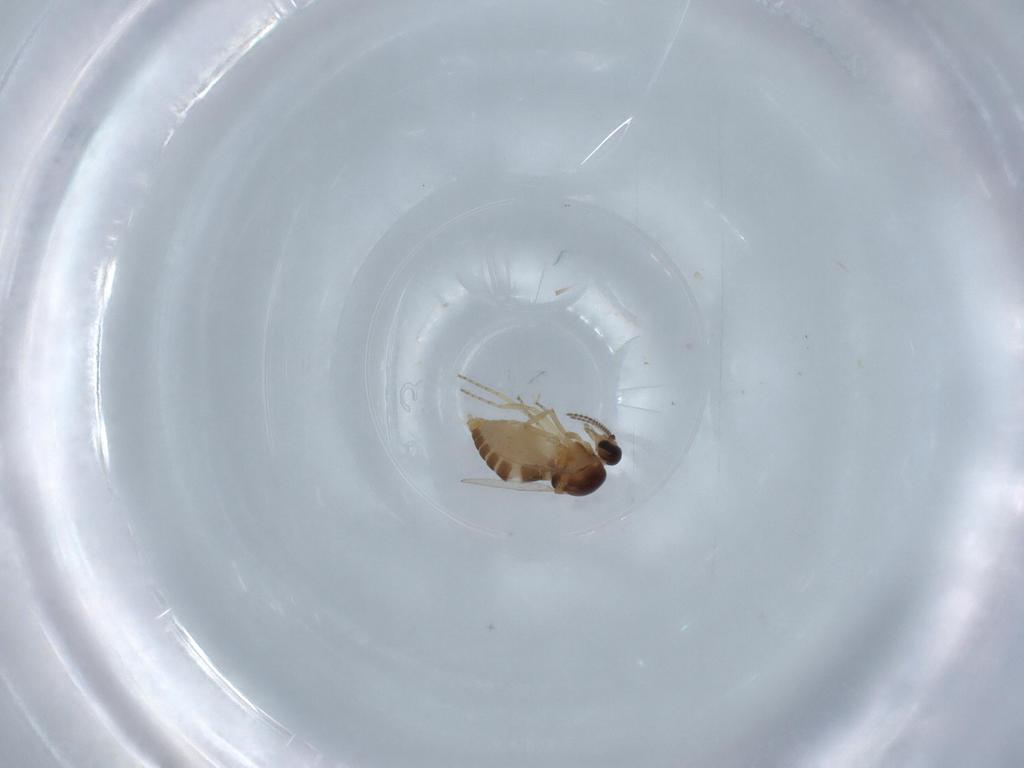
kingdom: Animalia
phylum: Arthropoda
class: Insecta
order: Diptera
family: Ceratopogonidae
